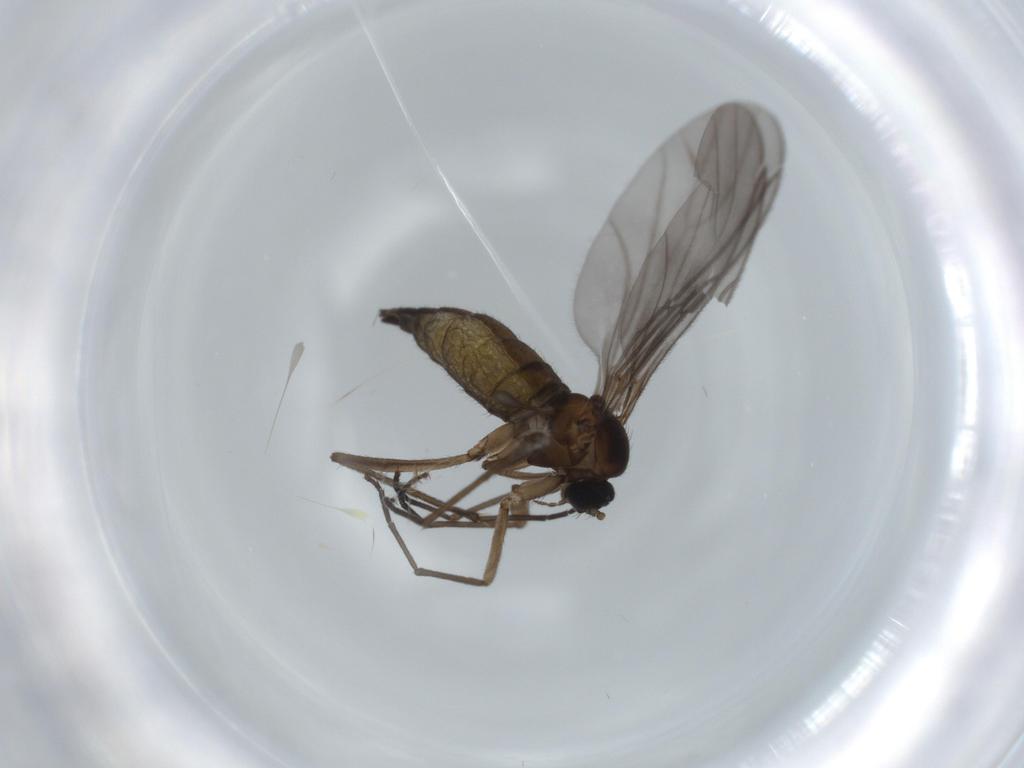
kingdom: Animalia
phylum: Arthropoda
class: Insecta
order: Diptera
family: Sciaridae
